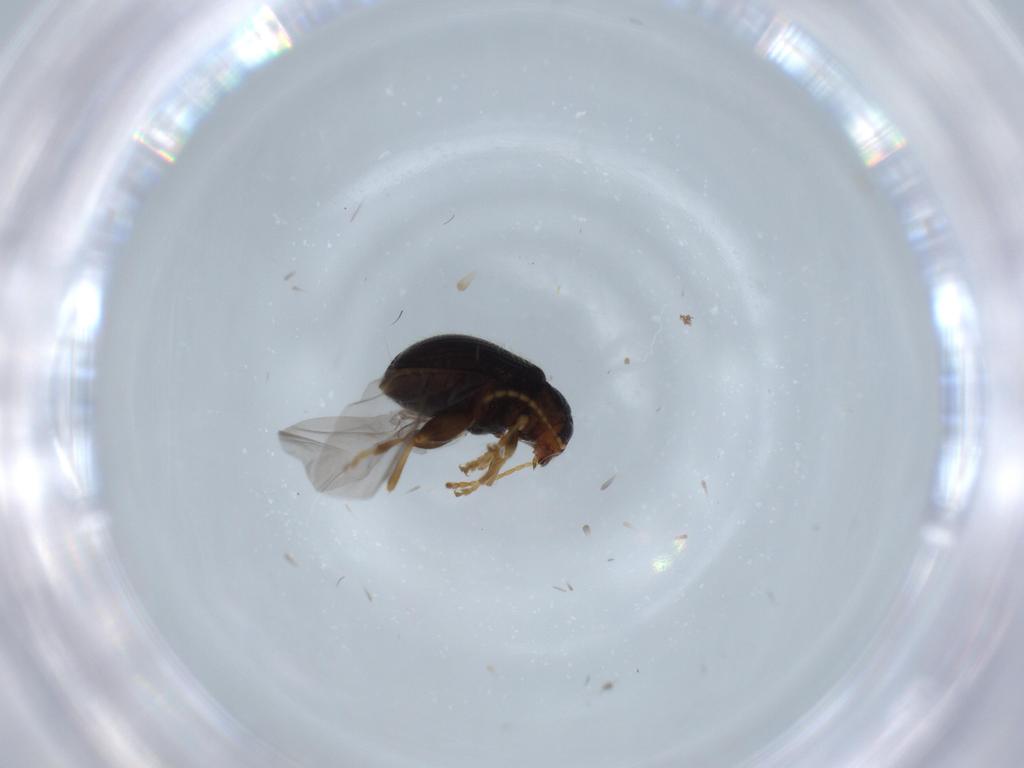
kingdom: Animalia
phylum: Arthropoda
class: Insecta
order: Coleoptera
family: Chrysomelidae
